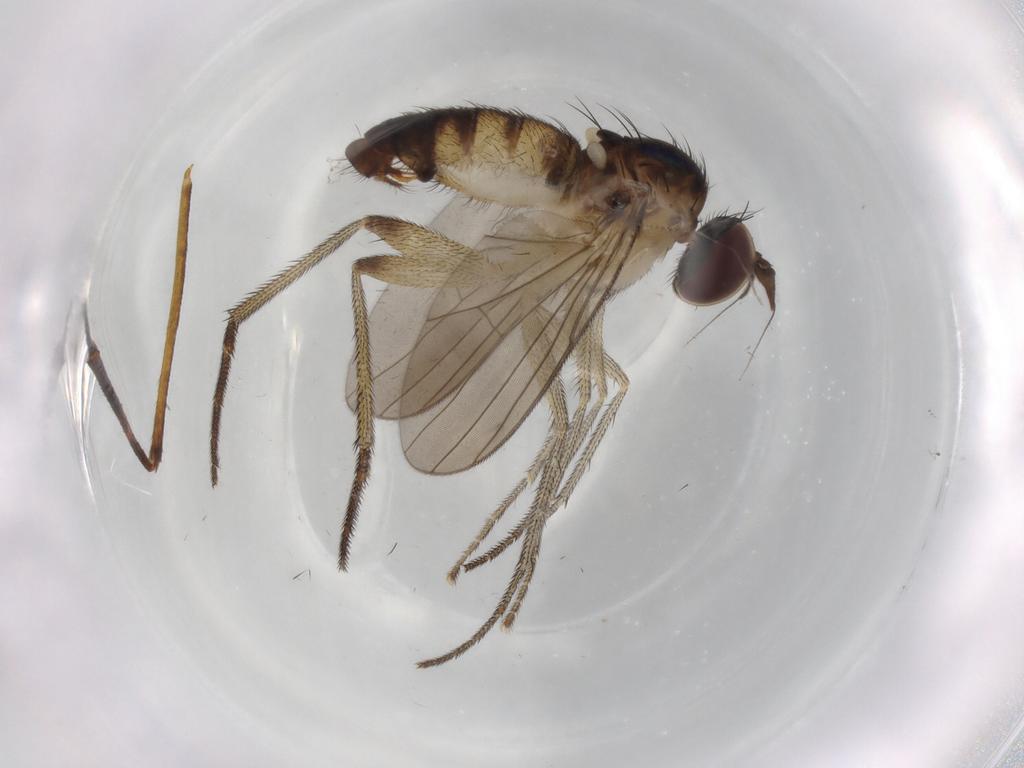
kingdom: Animalia
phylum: Arthropoda
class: Insecta
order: Diptera
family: Dolichopodidae
